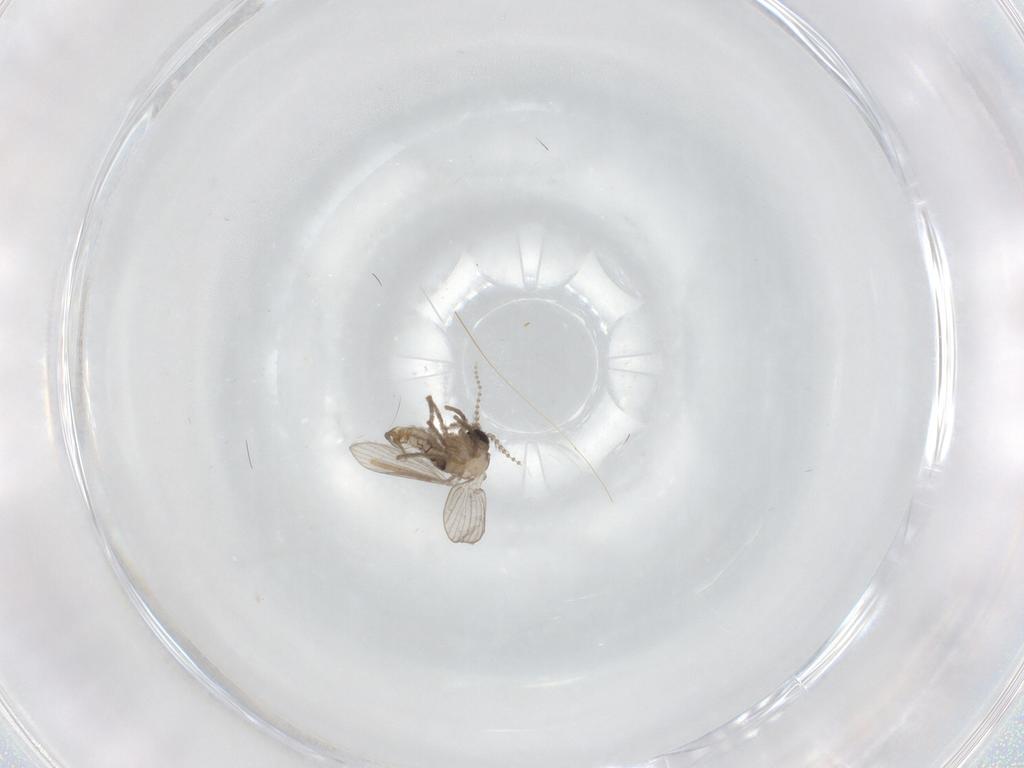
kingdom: Animalia
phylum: Arthropoda
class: Insecta
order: Diptera
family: Psychodidae
